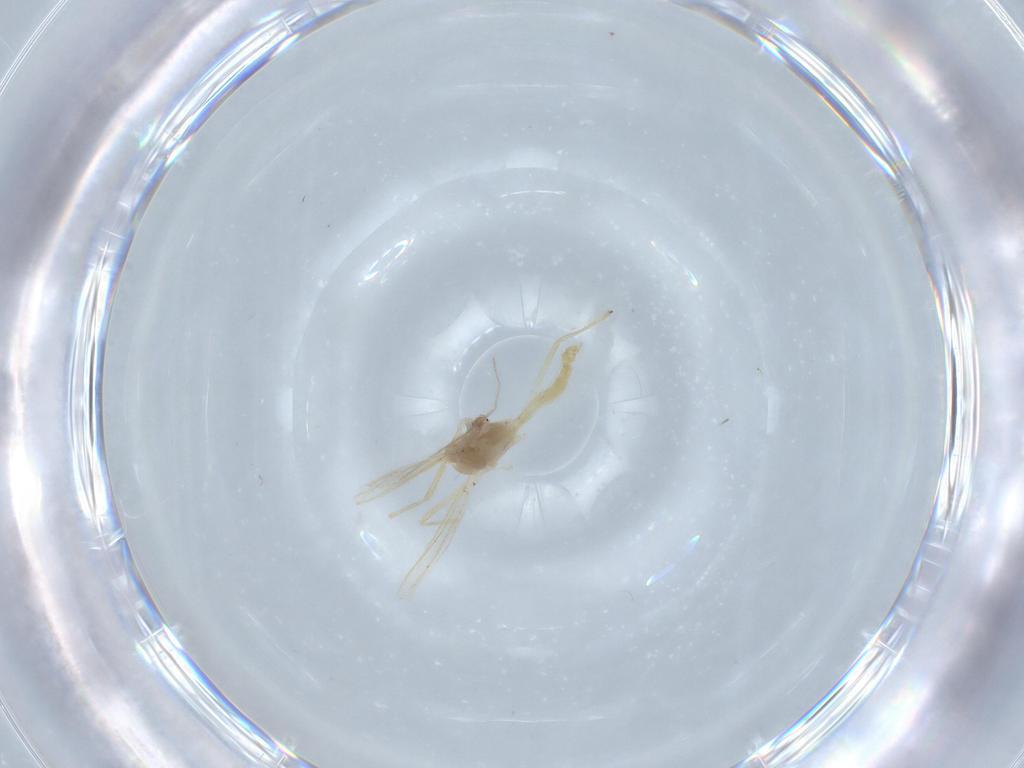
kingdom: Animalia
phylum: Arthropoda
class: Insecta
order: Diptera
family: Chironomidae
